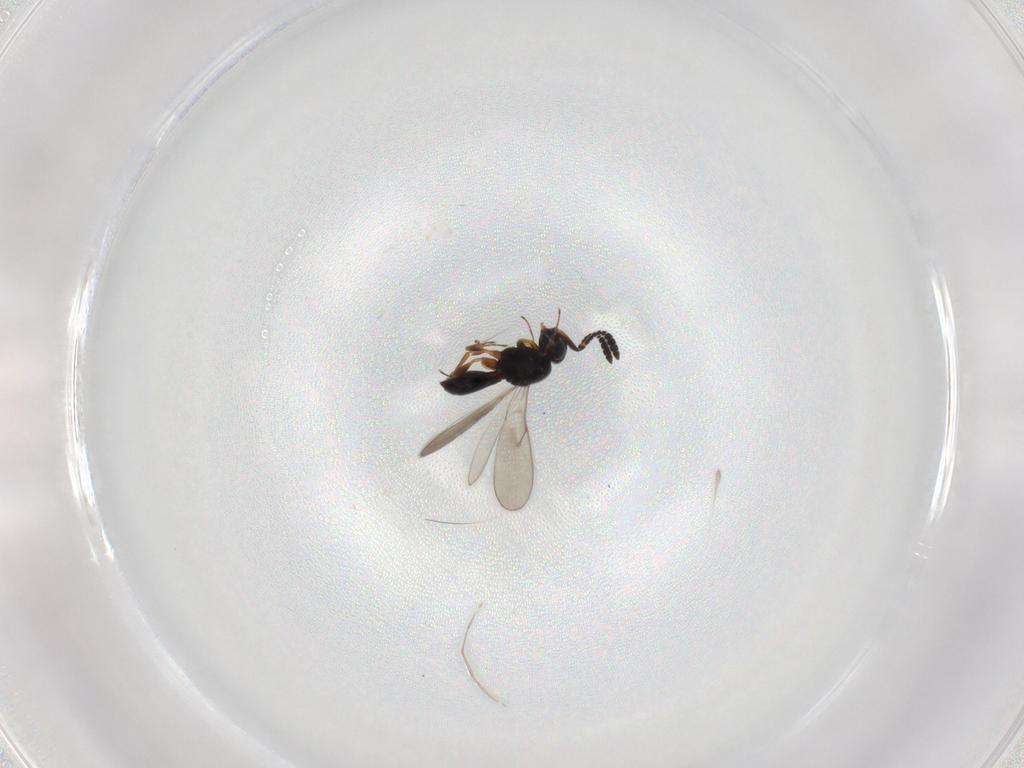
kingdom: Animalia
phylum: Arthropoda
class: Insecta
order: Hymenoptera
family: Scelionidae
